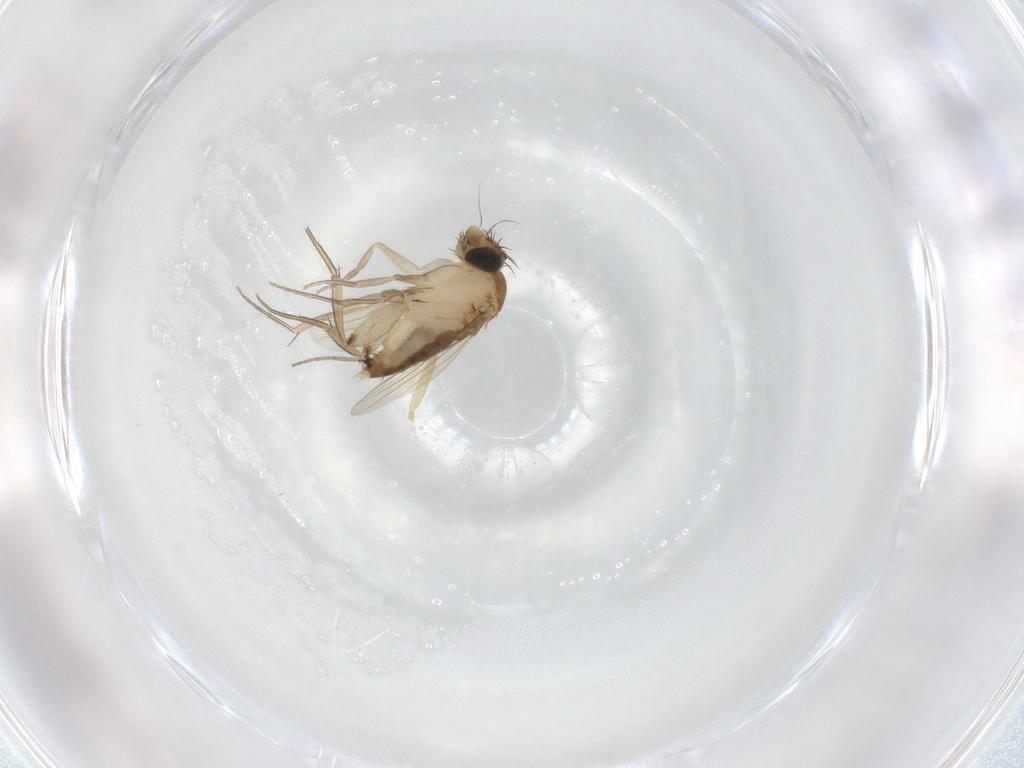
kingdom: Animalia
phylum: Arthropoda
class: Insecta
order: Diptera
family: Phoridae
